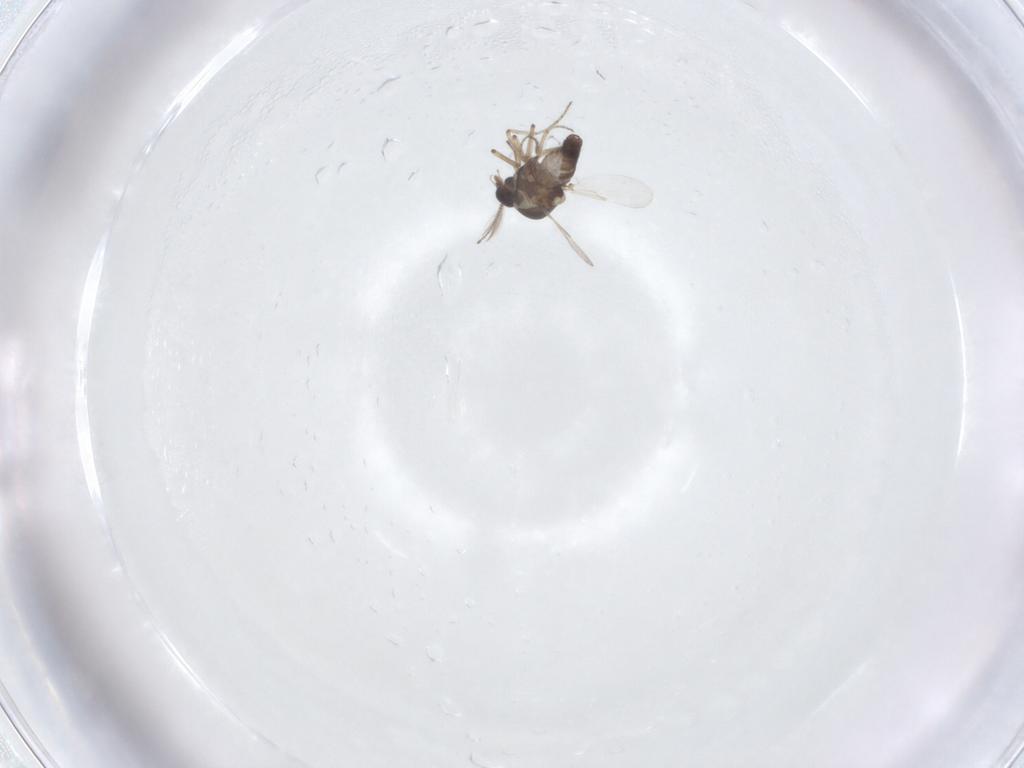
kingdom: Animalia
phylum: Arthropoda
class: Insecta
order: Diptera
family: Ceratopogonidae
